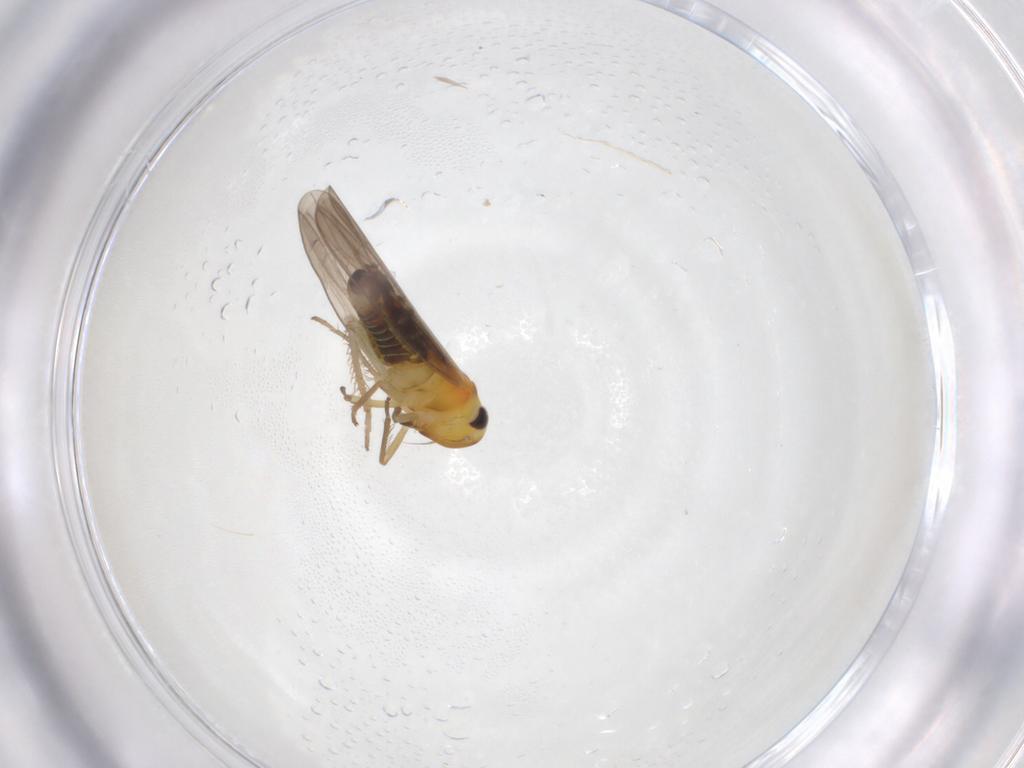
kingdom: Animalia
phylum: Arthropoda
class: Insecta
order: Hemiptera
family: Cicadellidae
